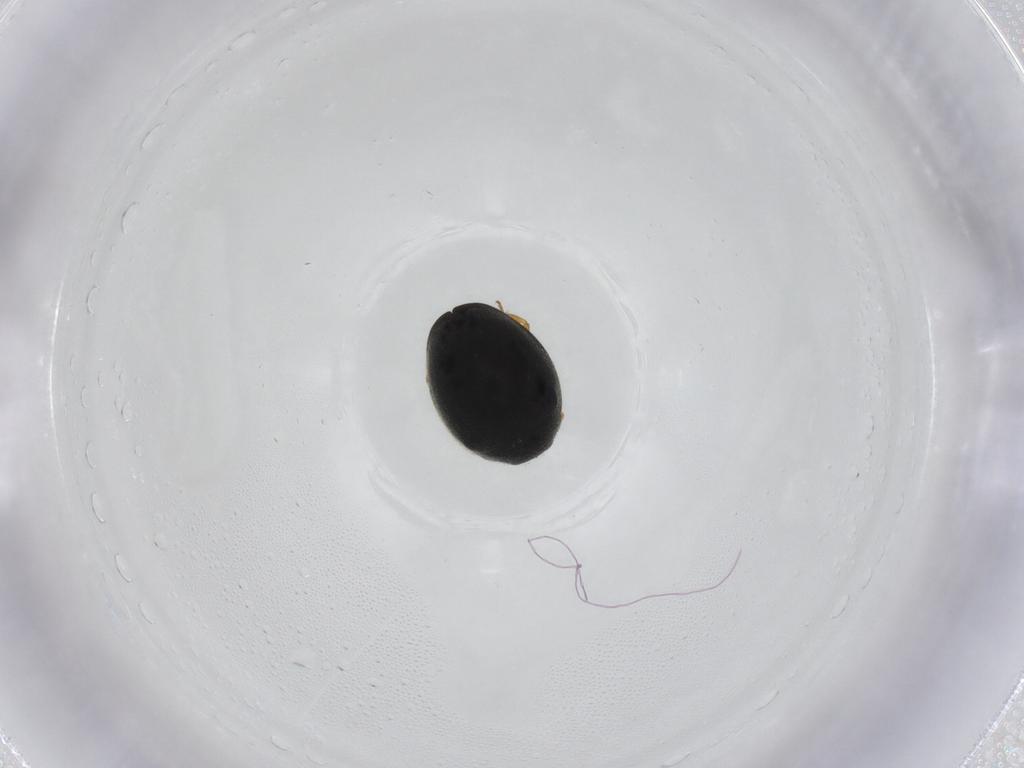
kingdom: Animalia
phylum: Arthropoda
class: Insecta
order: Coleoptera
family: Coccinellidae
